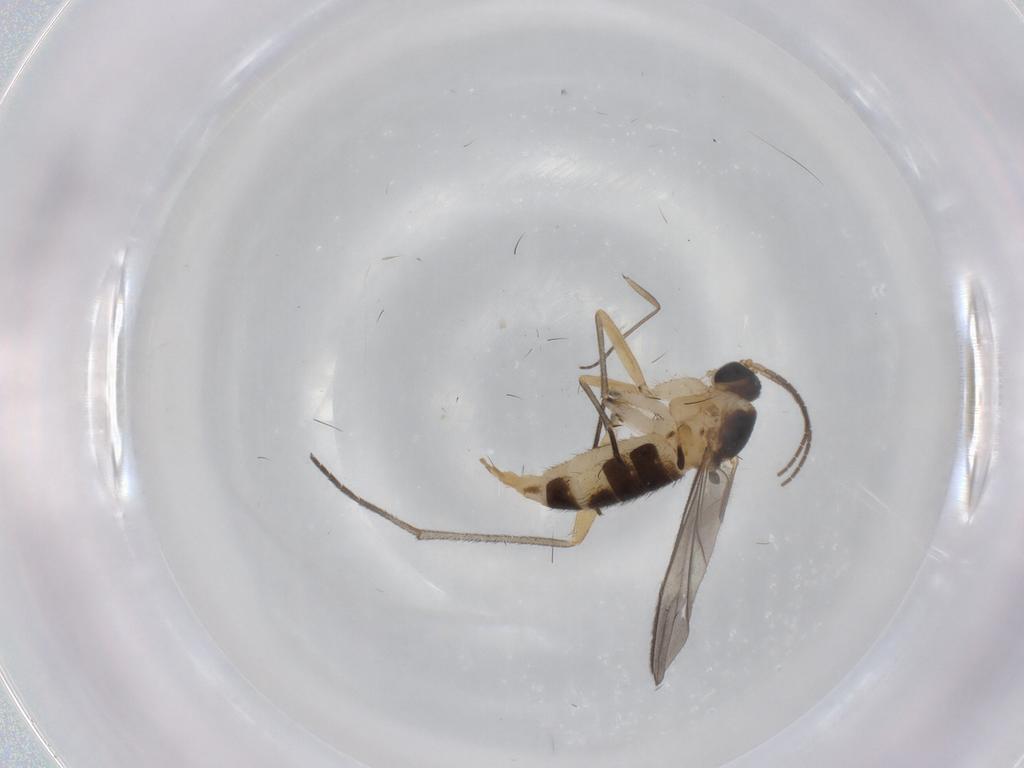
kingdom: Animalia
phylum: Arthropoda
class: Insecta
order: Diptera
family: Sciaridae
